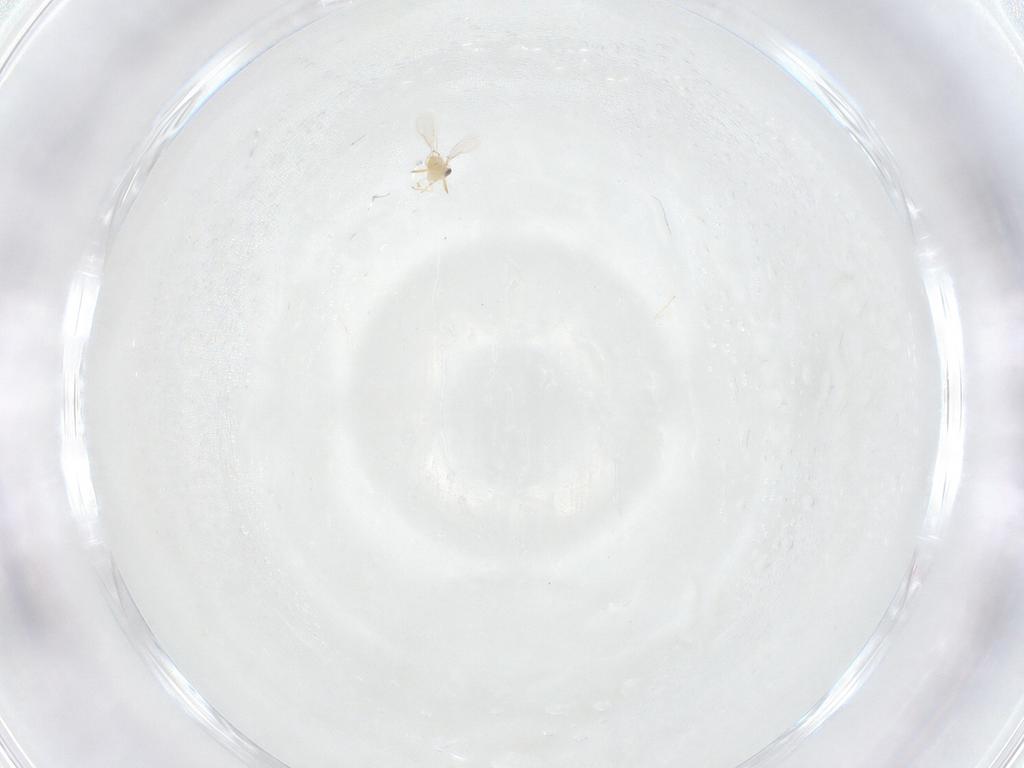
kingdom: Animalia
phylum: Arthropoda
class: Insecta
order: Hymenoptera
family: Aphelinidae
